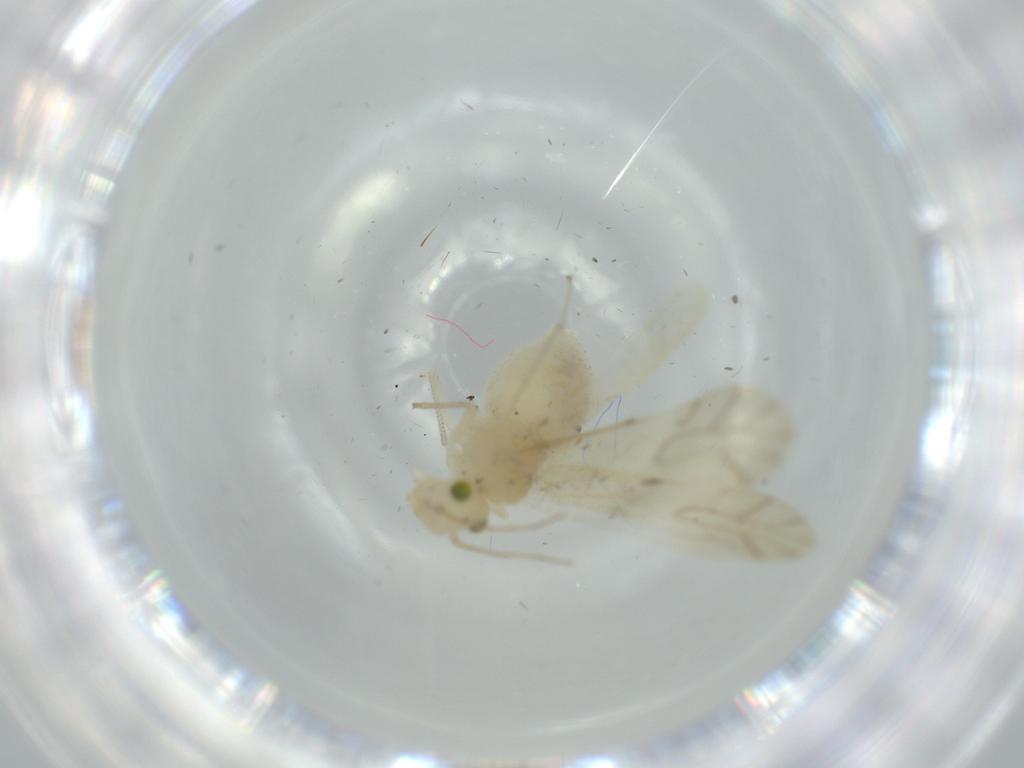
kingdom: Animalia
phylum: Arthropoda
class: Insecta
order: Psocodea
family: Caeciliusidae
